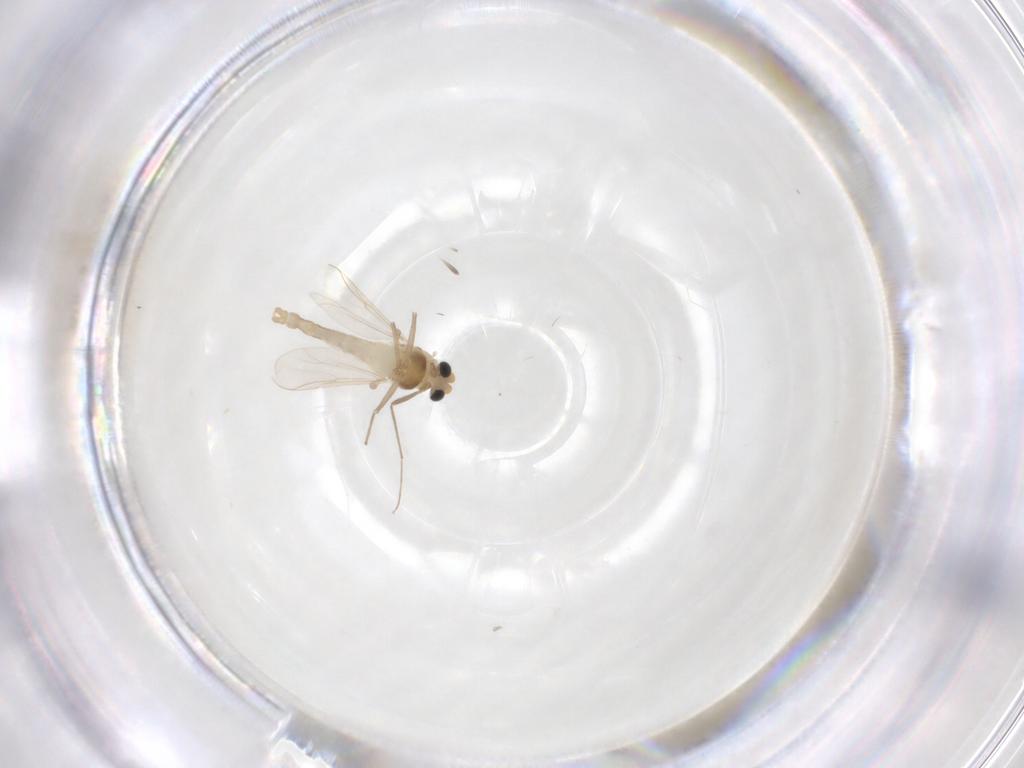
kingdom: Animalia
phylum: Arthropoda
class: Insecta
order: Diptera
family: Chironomidae
